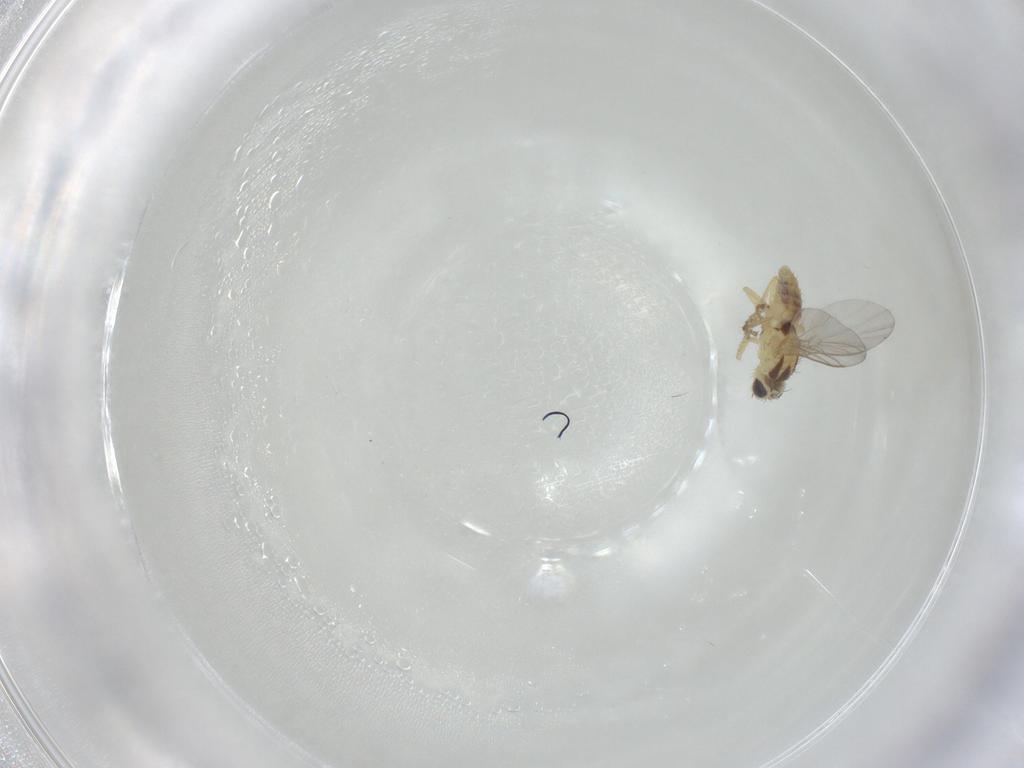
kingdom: Animalia
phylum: Arthropoda
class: Insecta
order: Diptera
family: Agromyzidae
